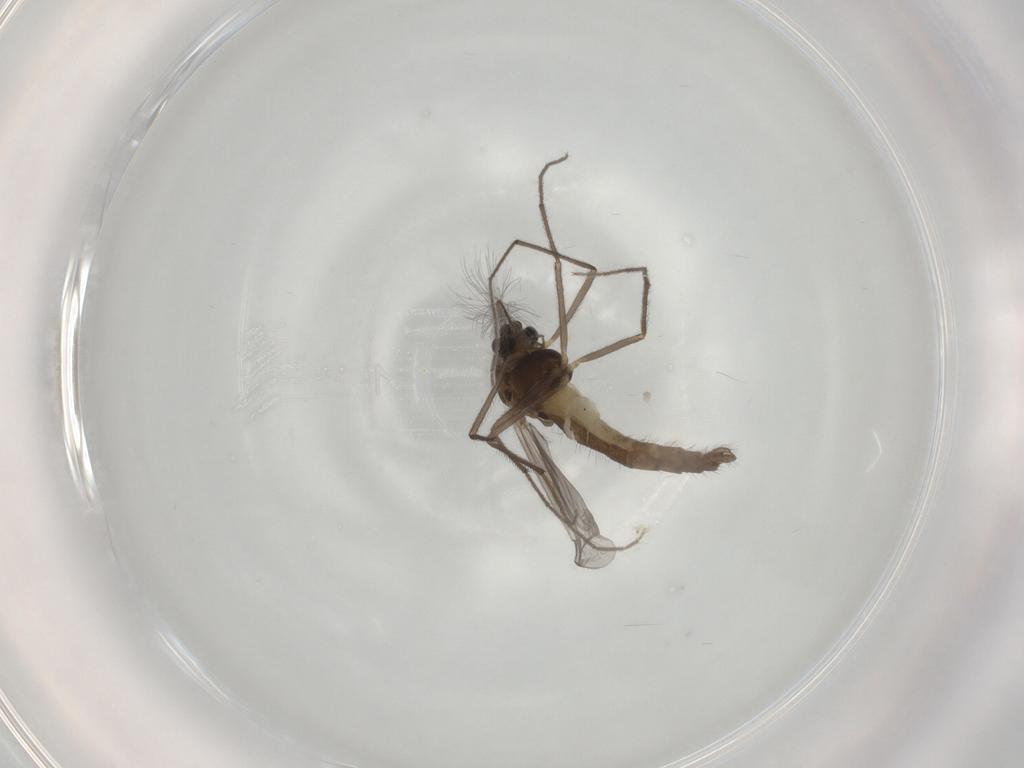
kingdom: Animalia
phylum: Arthropoda
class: Insecta
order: Diptera
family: Chironomidae
